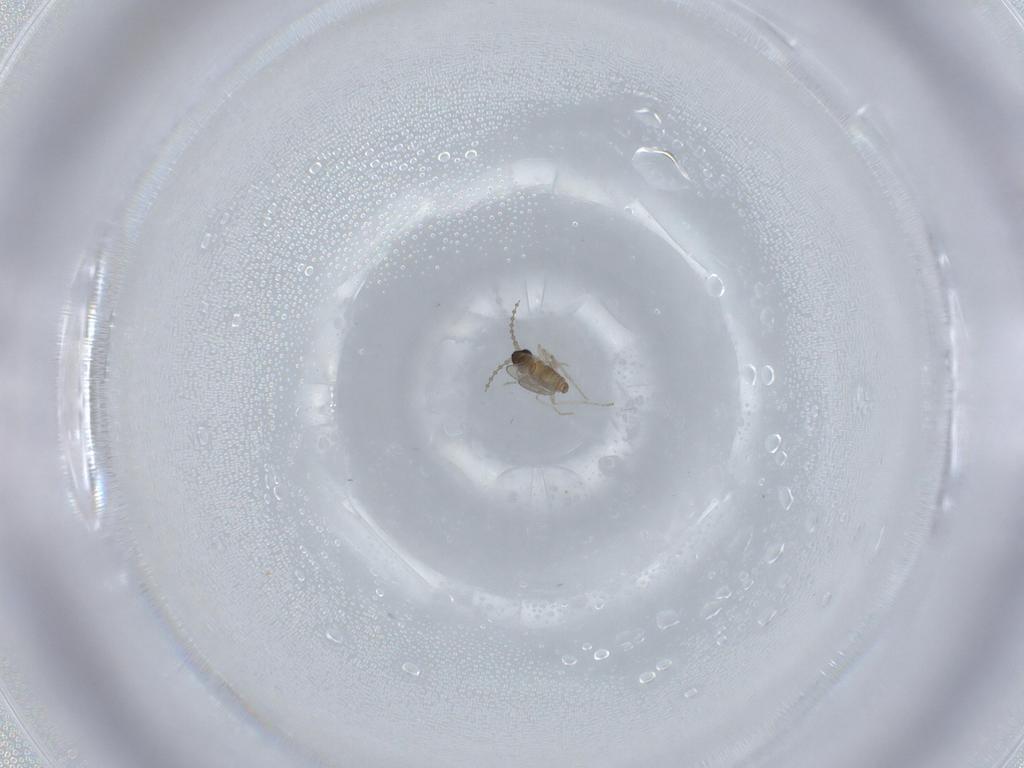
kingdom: Animalia
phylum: Arthropoda
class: Insecta
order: Diptera
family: Cecidomyiidae
